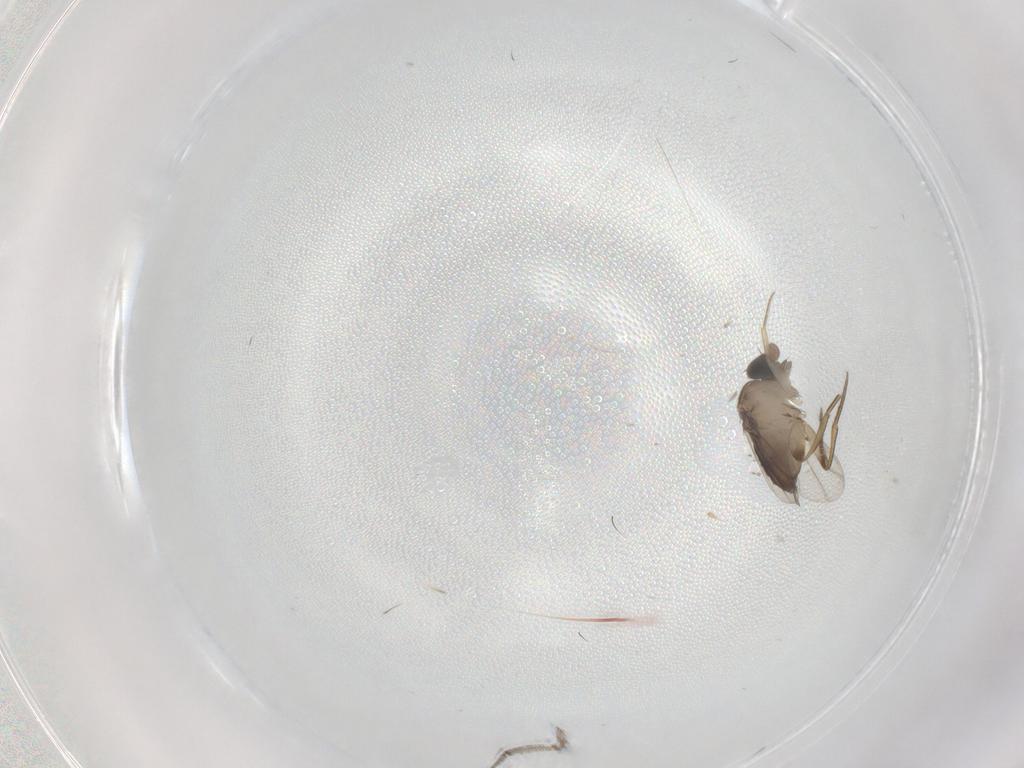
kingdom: Animalia
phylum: Arthropoda
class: Insecta
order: Diptera
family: Sciaridae
